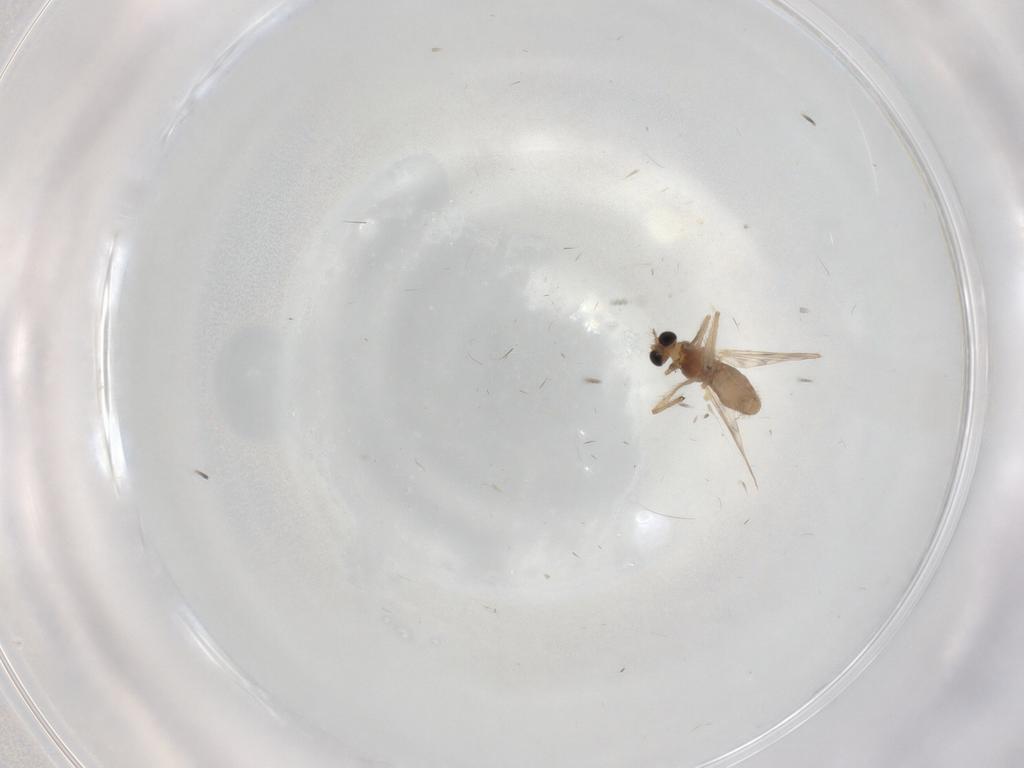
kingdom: Animalia
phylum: Arthropoda
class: Insecta
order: Diptera
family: Chironomidae
